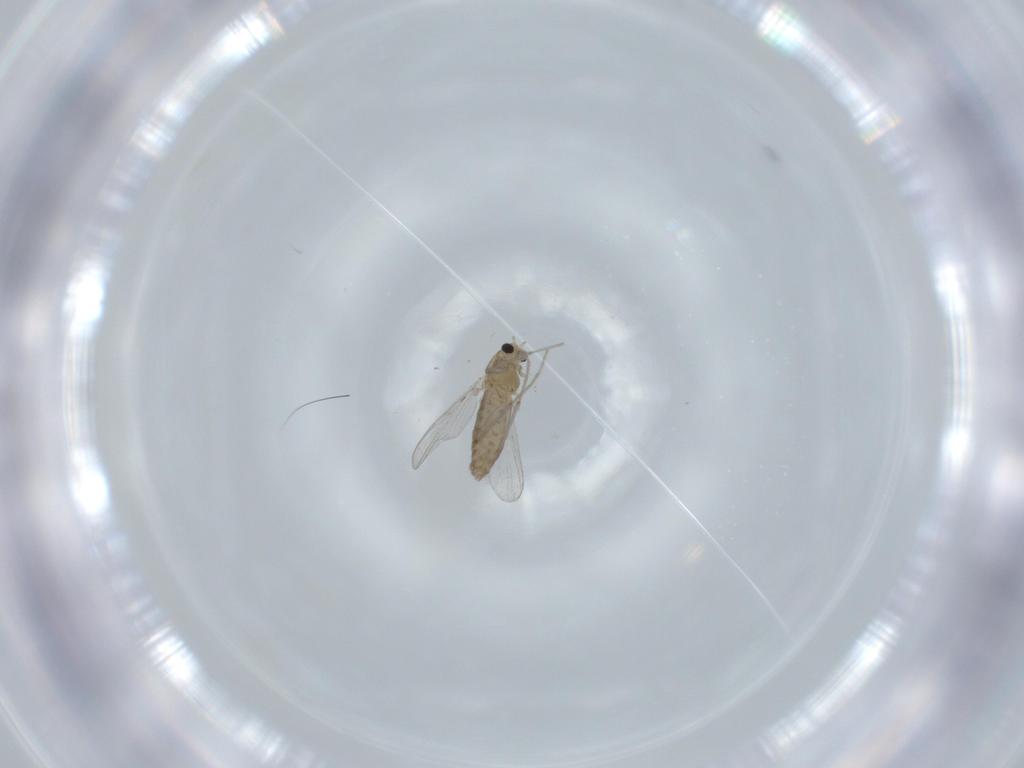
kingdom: Animalia
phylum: Arthropoda
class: Insecta
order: Diptera
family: Chironomidae
